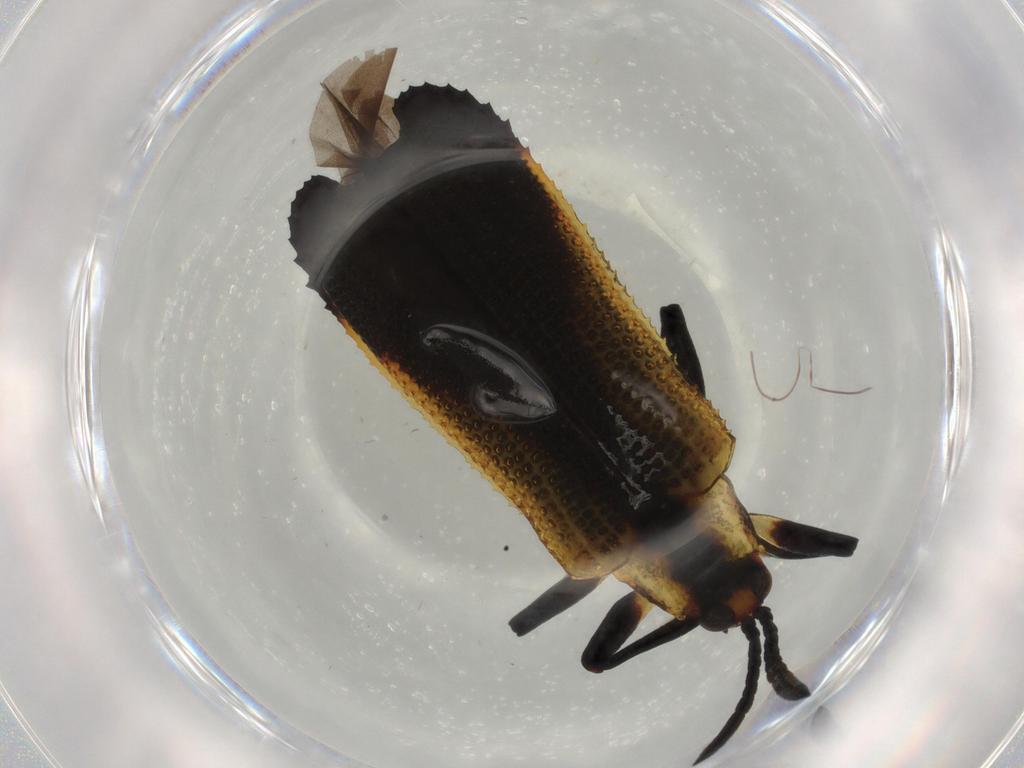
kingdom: Animalia
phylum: Arthropoda
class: Insecta
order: Coleoptera
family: Chrysomelidae
